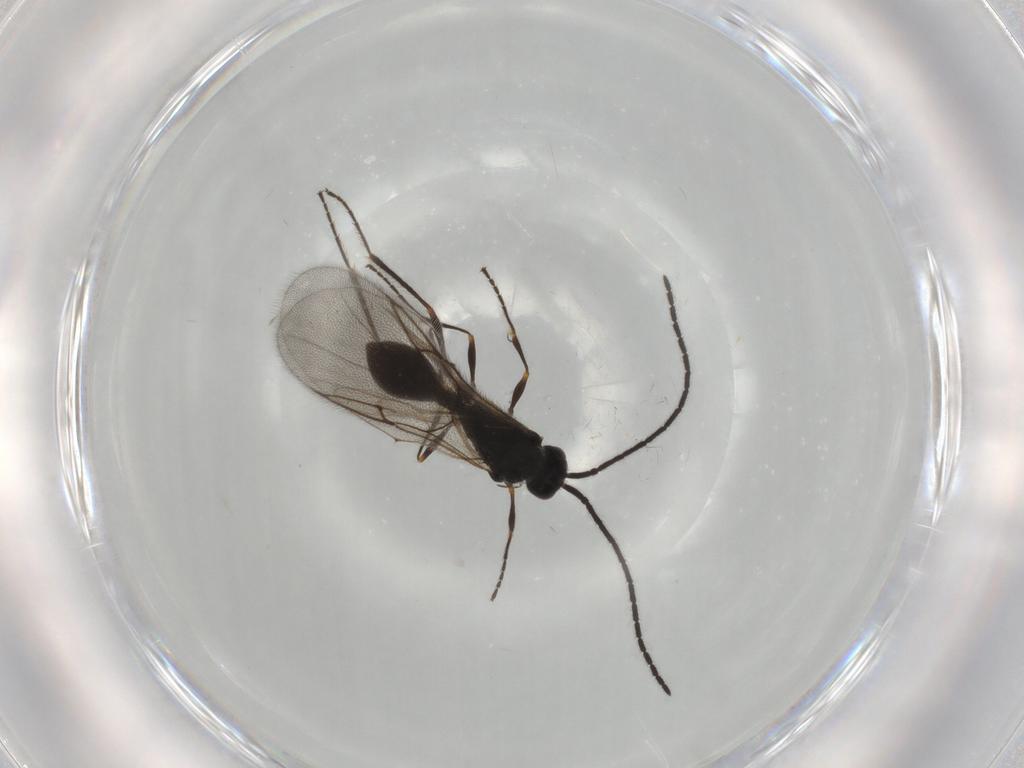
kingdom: Animalia
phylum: Arthropoda
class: Insecta
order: Hymenoptera
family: Diapriidae
